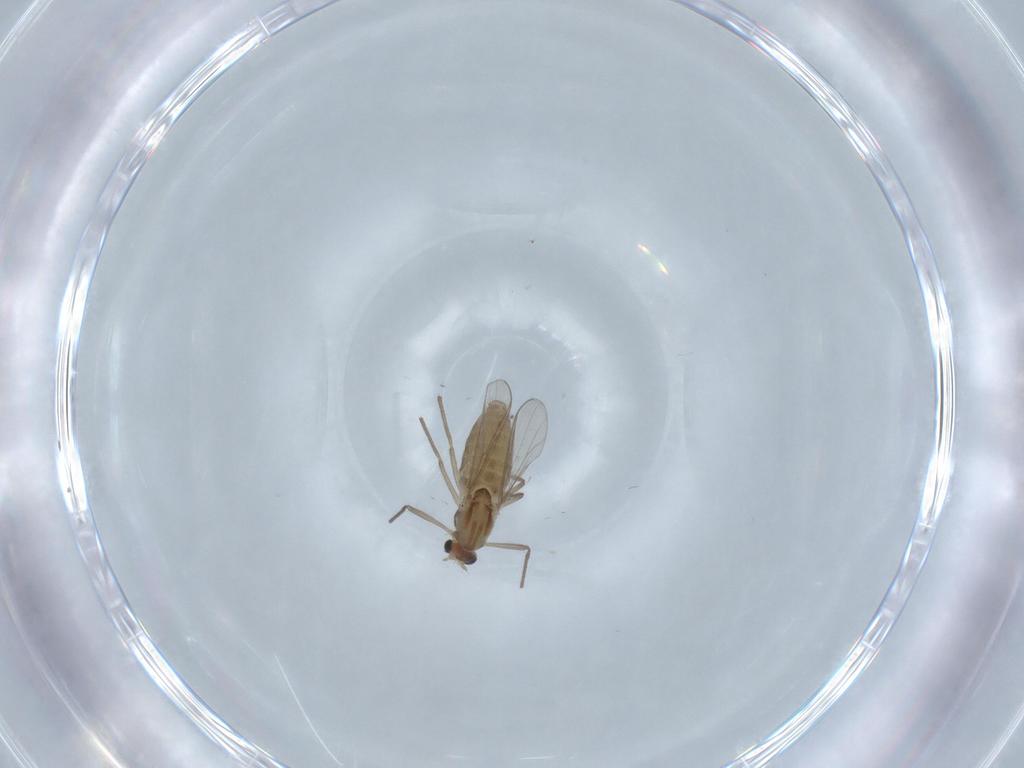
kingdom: Animalia
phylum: Arthropoda
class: Insecta
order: Diptera
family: Chironomidae
